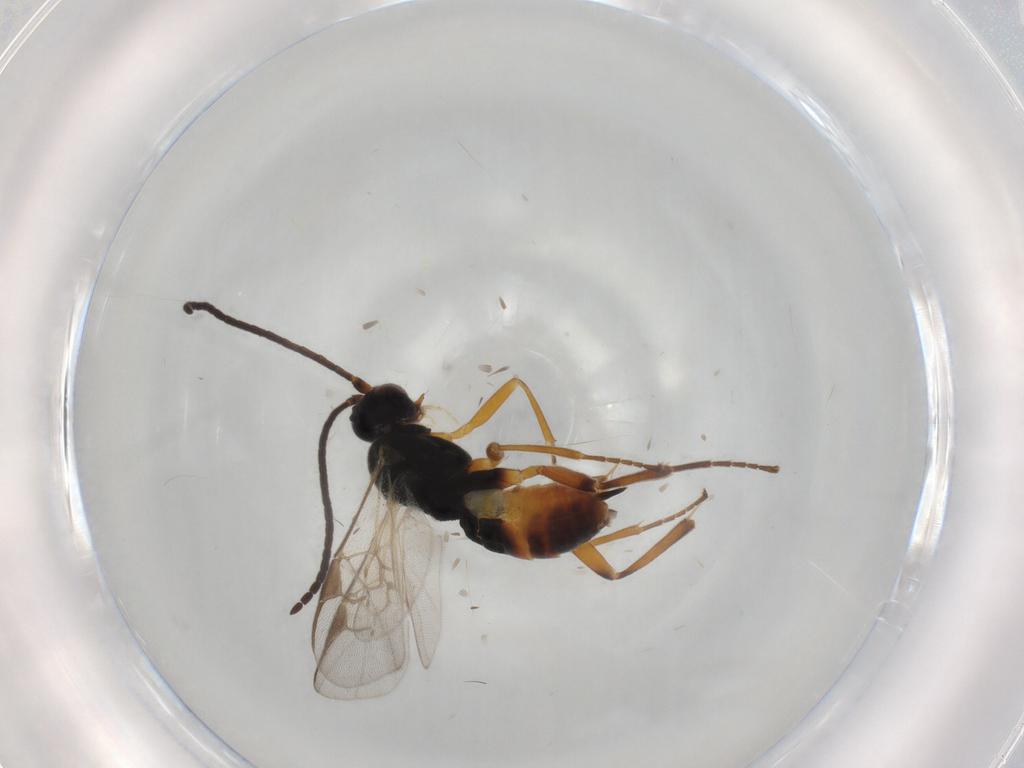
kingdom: Animalia
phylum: Arthropoda
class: Insecta
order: Hymenoptera
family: Braconidae
